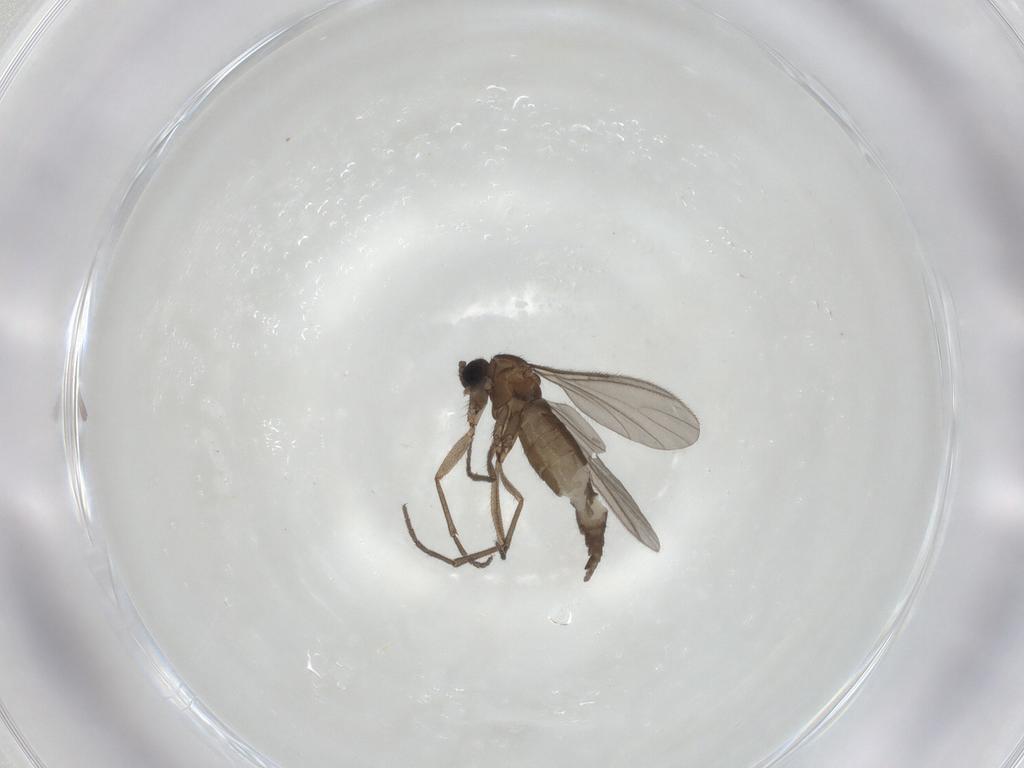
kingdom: Animalia
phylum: Arthropoda
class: Insecta
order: Diptera
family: Sciaridae
